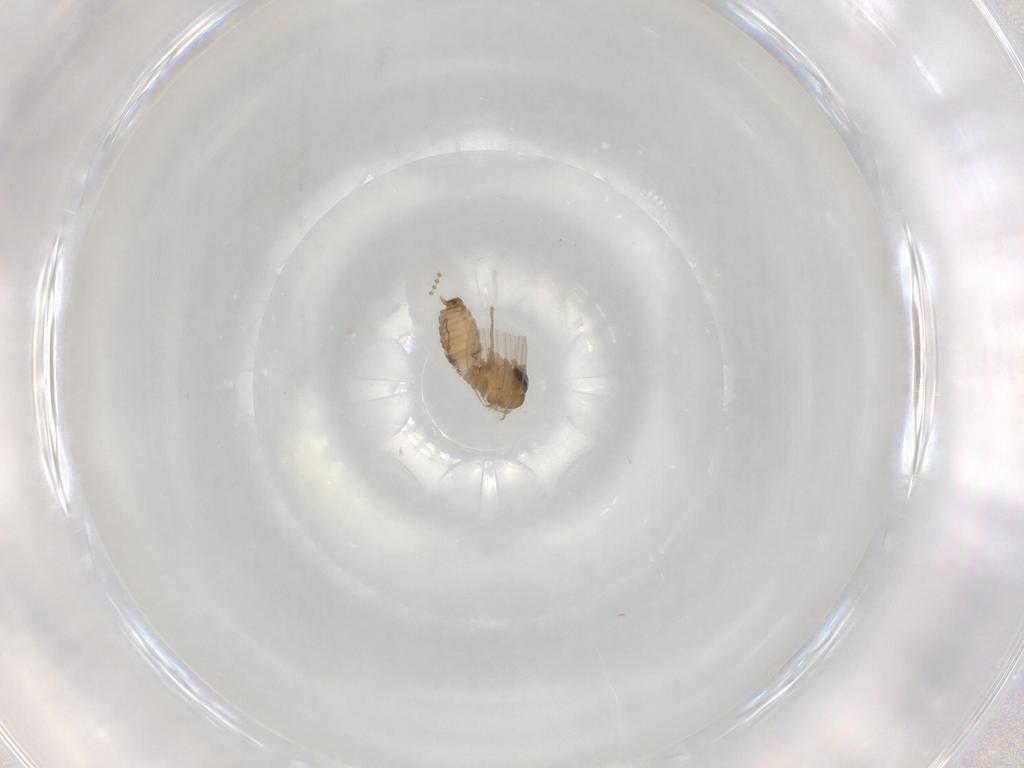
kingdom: Animalia
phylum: Arthropoda
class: Insecta
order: Diptera
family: Psychodidae
